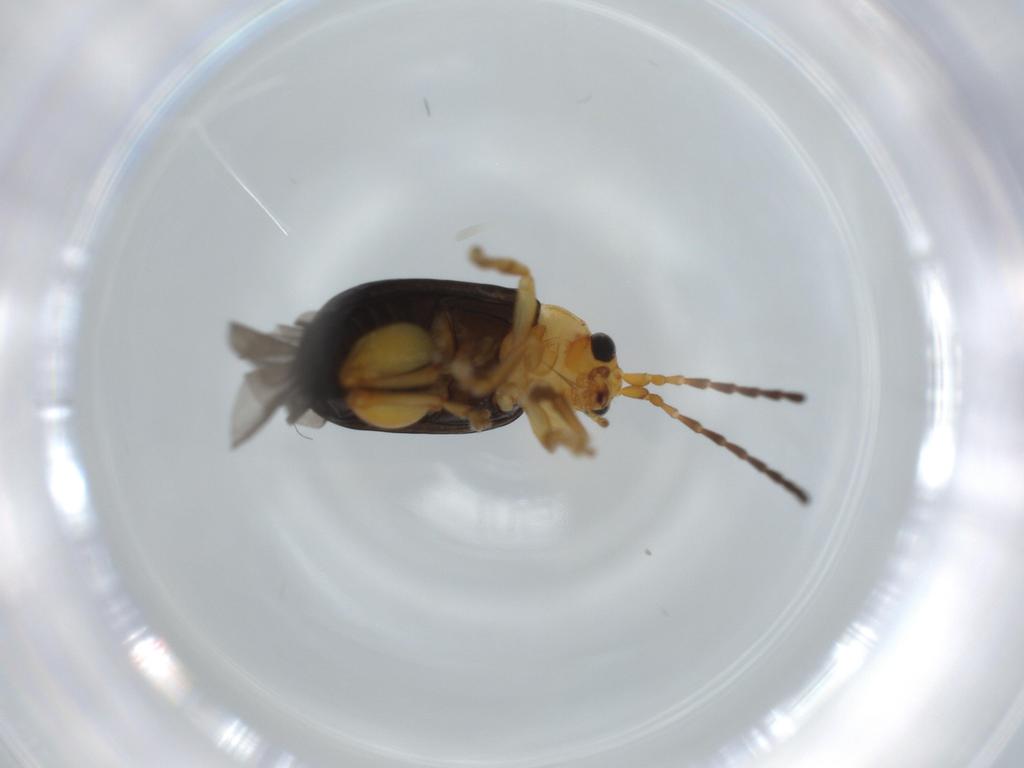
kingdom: Animalia
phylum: Arthropoda
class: Insecta
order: Coleoptera
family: Chrysomelidae
